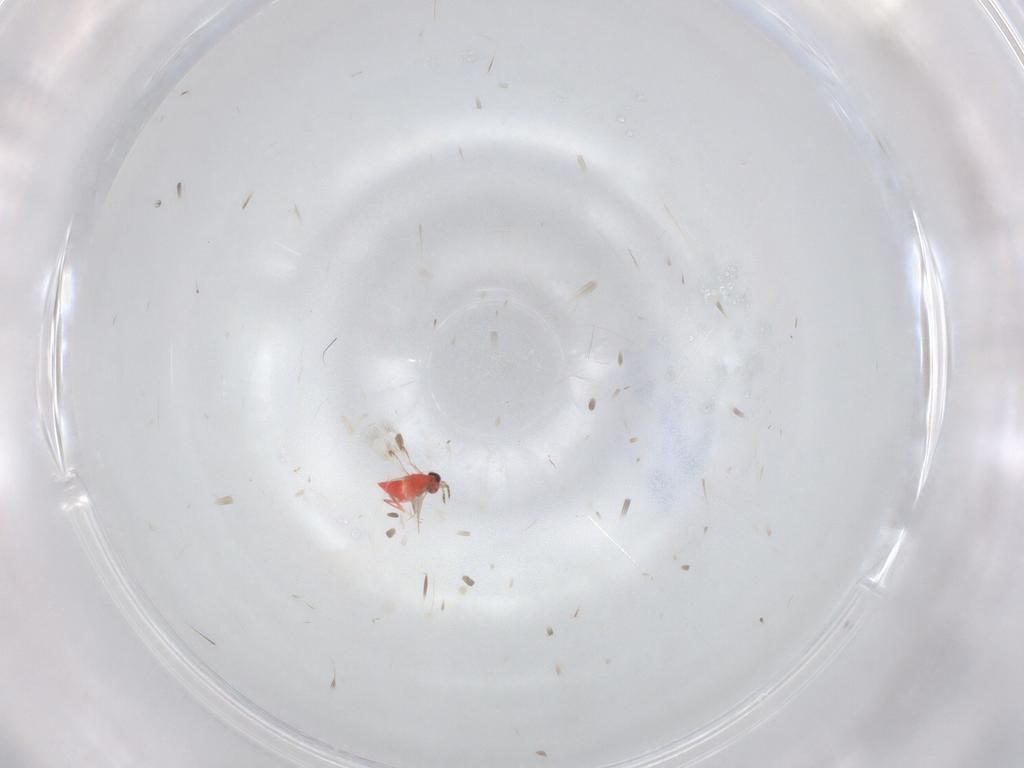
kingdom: Animalia
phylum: Arthropoda
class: Insecta
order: Hymenoptera
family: Trichogrammatidae
